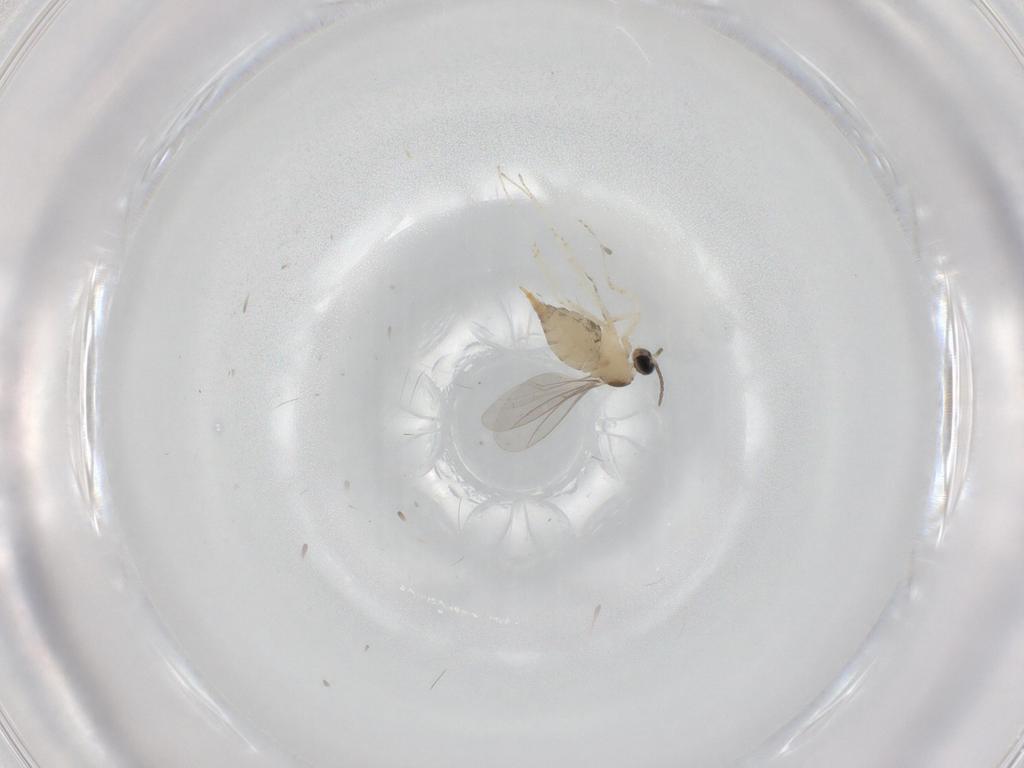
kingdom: Animalia
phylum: Arthropoda
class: Insecta
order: Diptera
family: Cecidomyiidae
